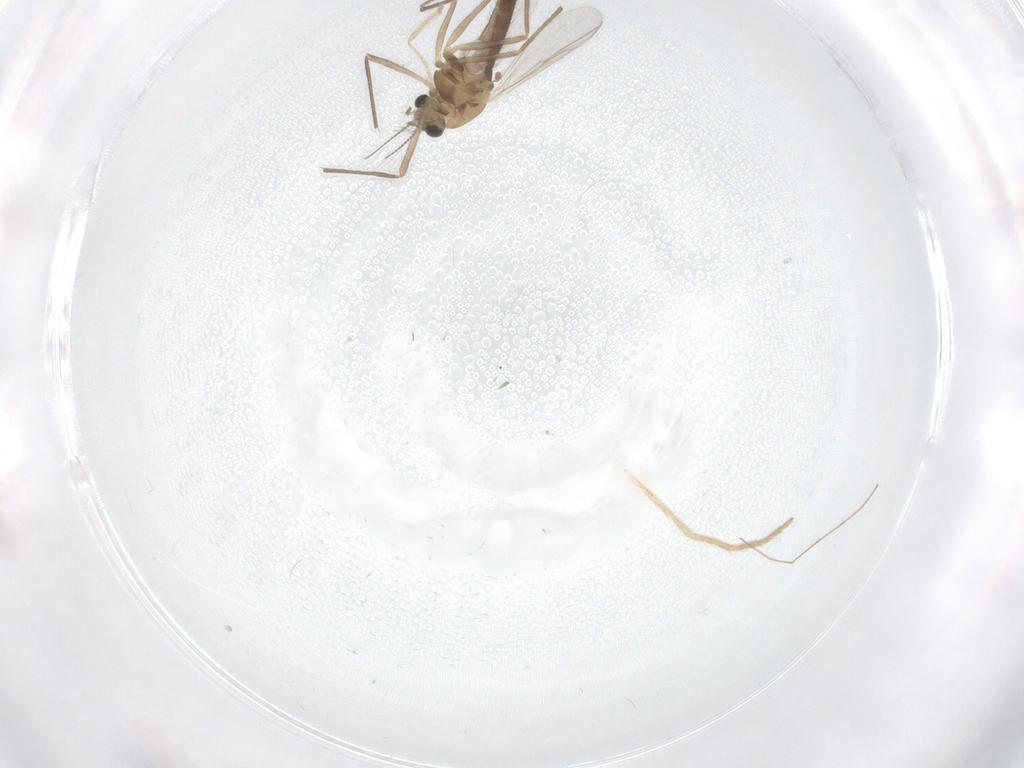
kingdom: Animalia
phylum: Arthropoda
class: Insecta
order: Diptera
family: Chironomidae
